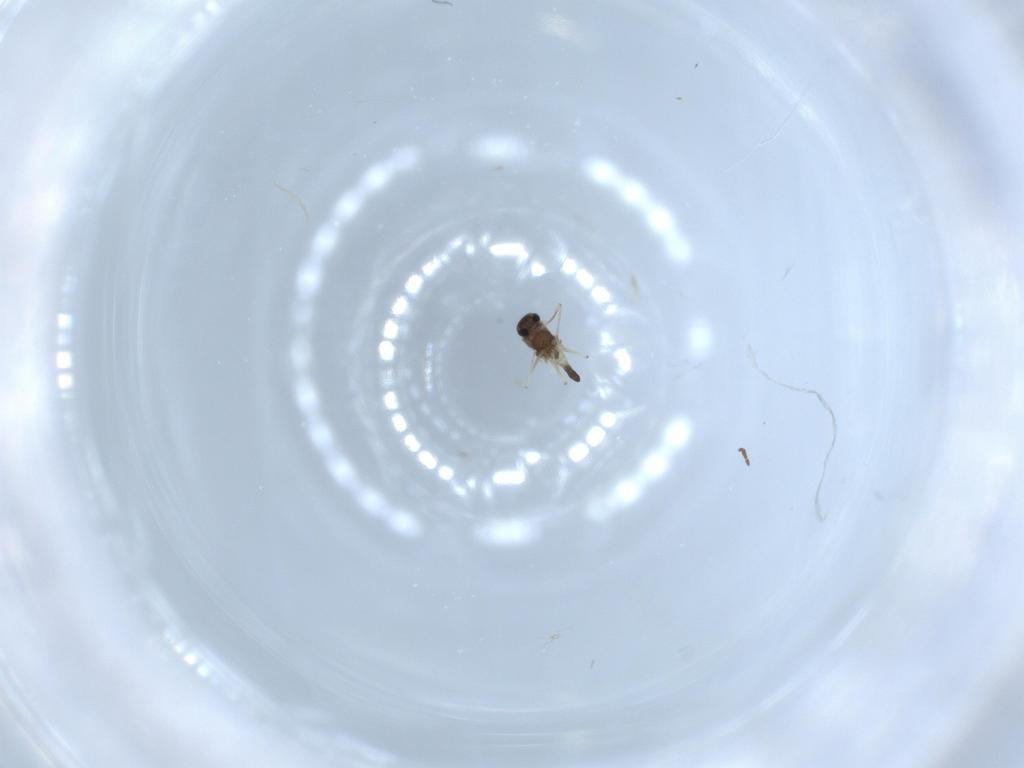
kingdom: Animalia
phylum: Arthropoda
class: Insecta
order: Diptera
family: Chironomidae
